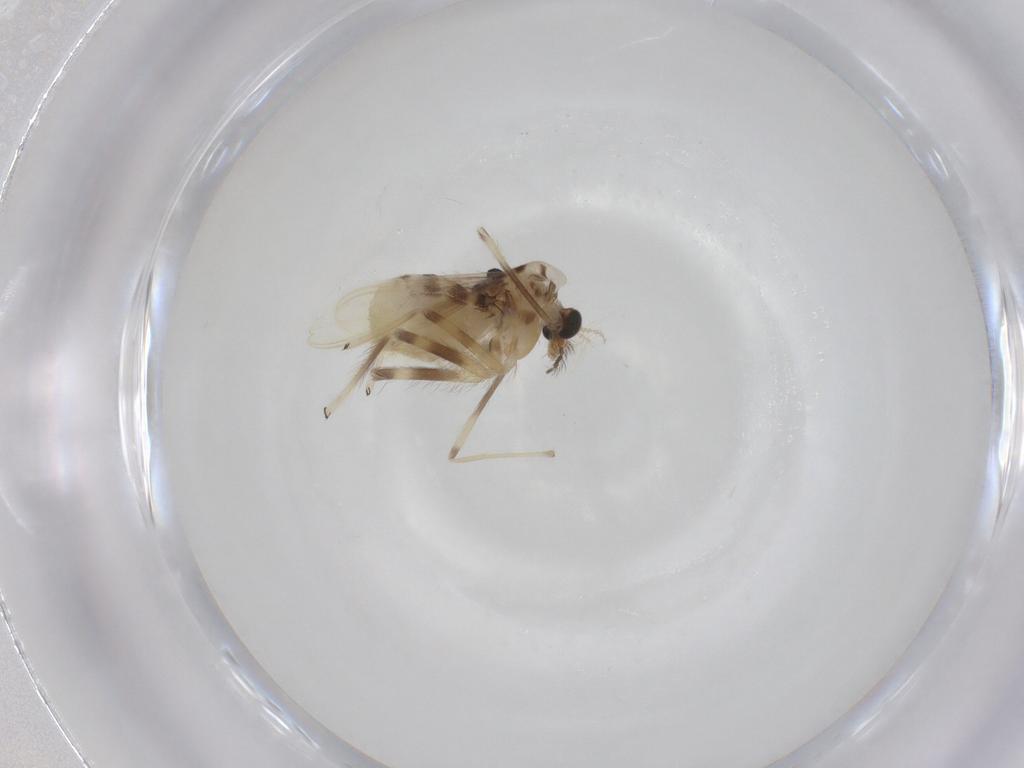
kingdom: Animalia
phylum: Arthropoda
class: Insecta
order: Diptera
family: Chironomidae
